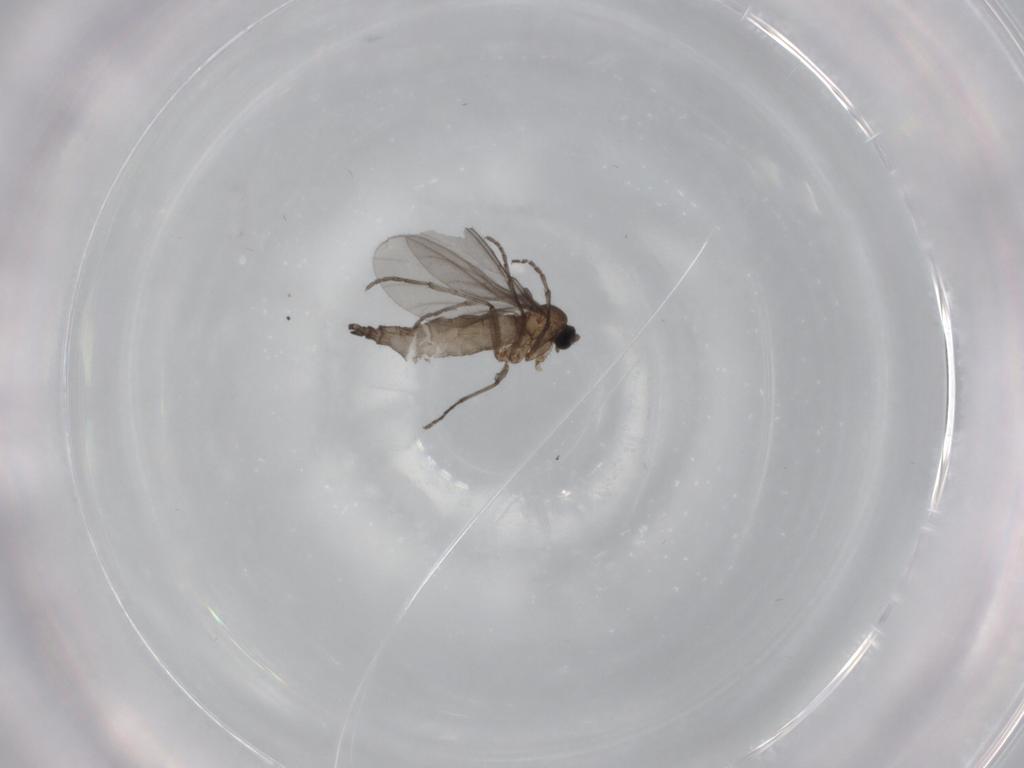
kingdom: Animalia
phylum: Arthropoda
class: Insecta
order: Diptera
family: Sciaridae
